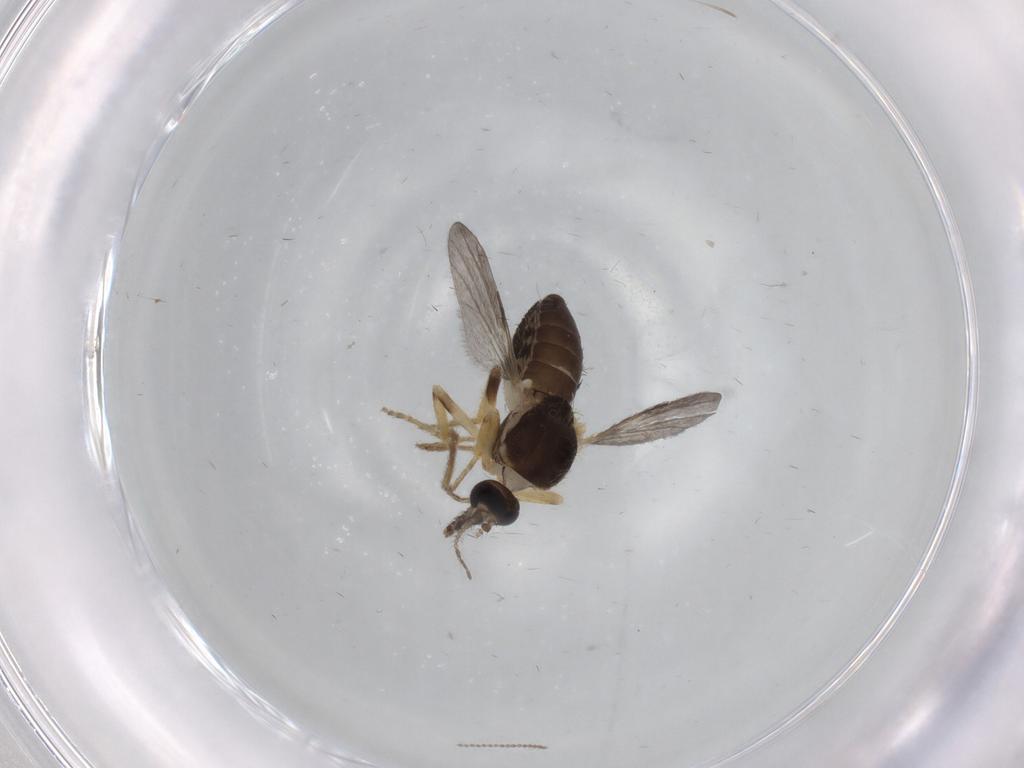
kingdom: Animalia
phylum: Arthropoda
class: Insecta
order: Diptera
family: Ceratopogonidae
